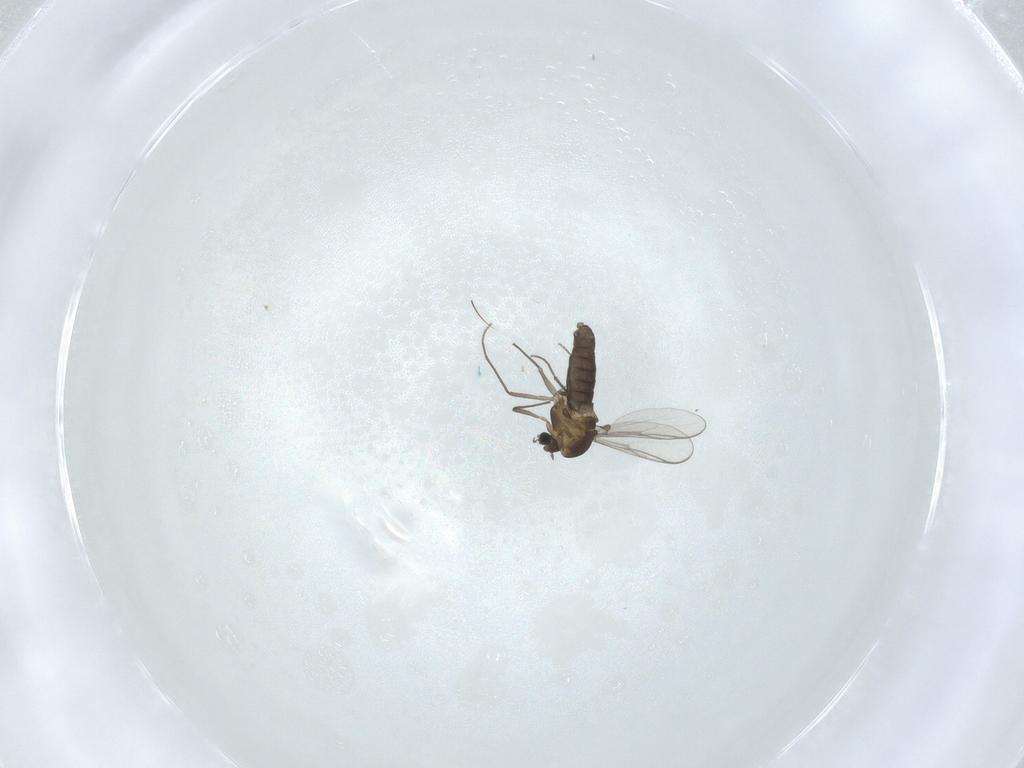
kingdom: Animalia
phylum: Arthropoda
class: Insecta
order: Diptera
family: Chironomidae
